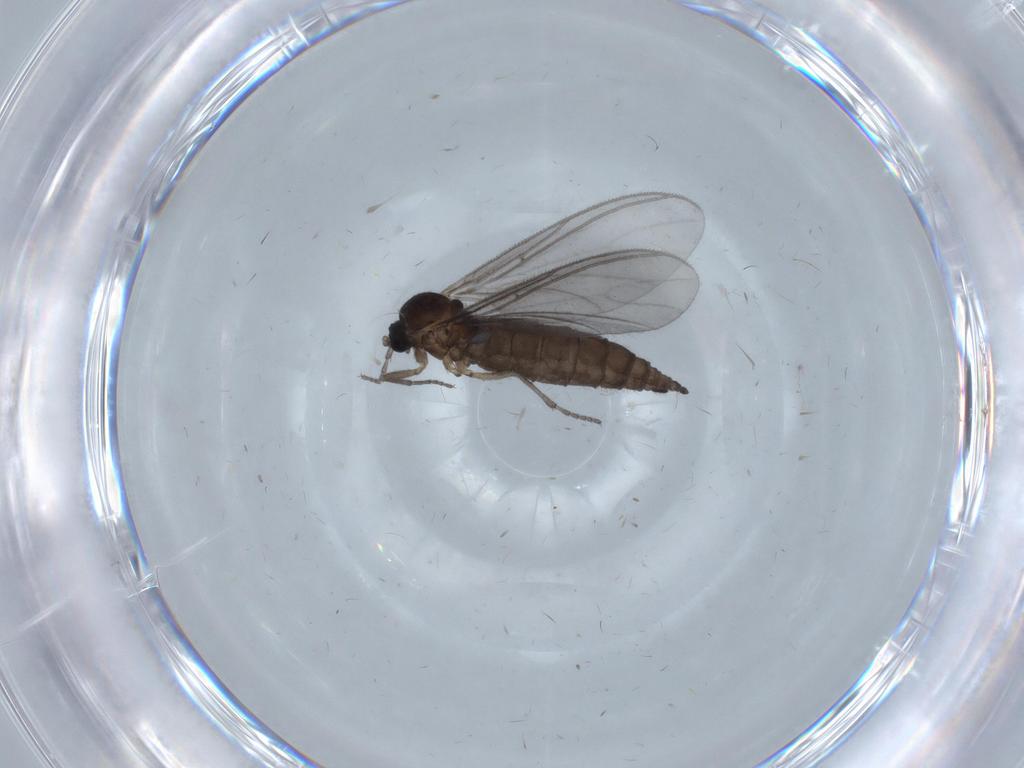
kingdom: Animalia
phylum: Arthropoda
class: Insecta
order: Diptera
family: Sciaridae
